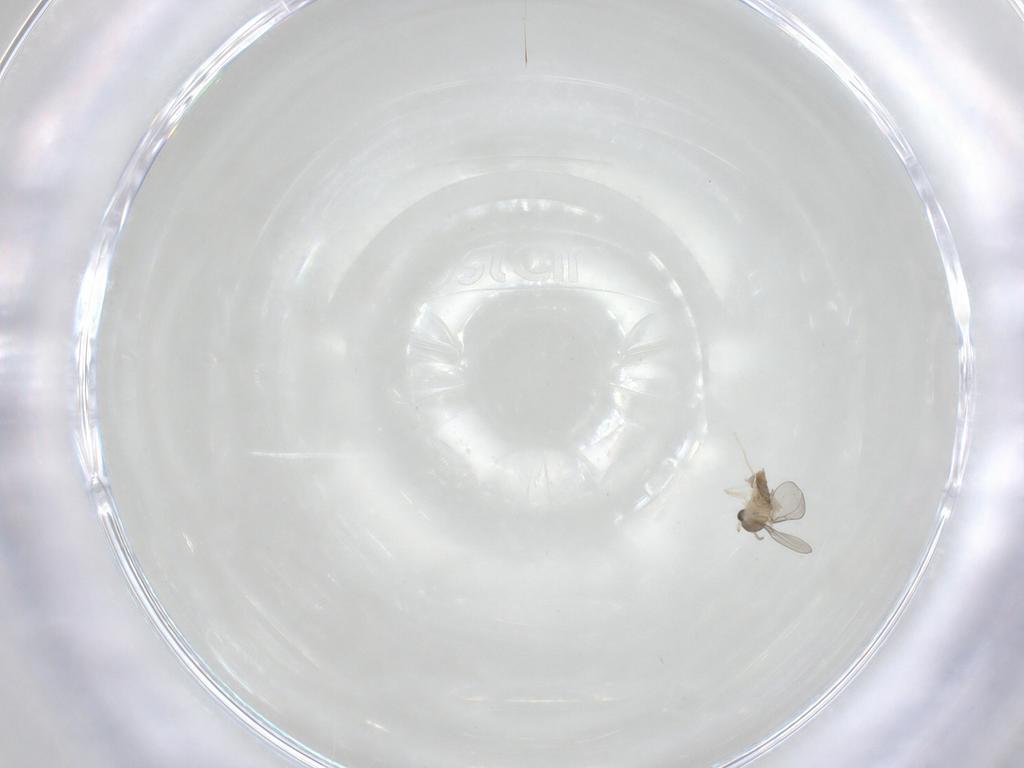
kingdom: Animalia
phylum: Arthropoda
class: Insecta
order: Diptera
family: Cecidomyiidae
